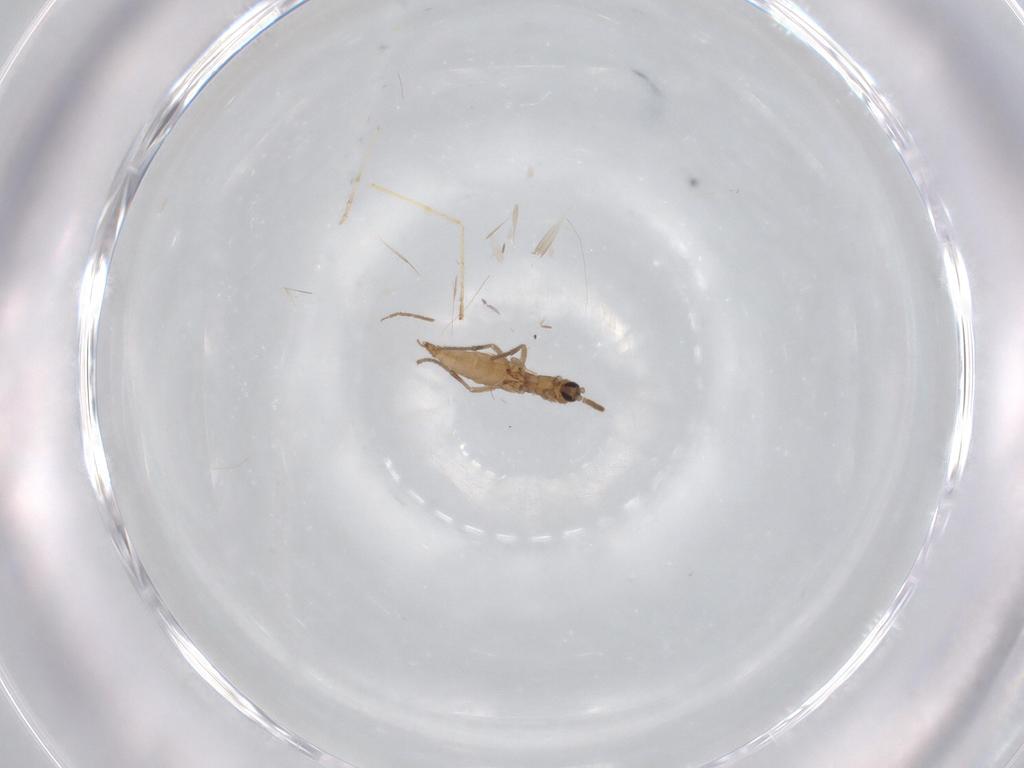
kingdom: Animalia
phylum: Arthropoda
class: Insecta
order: Diptera
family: Sciaridae
